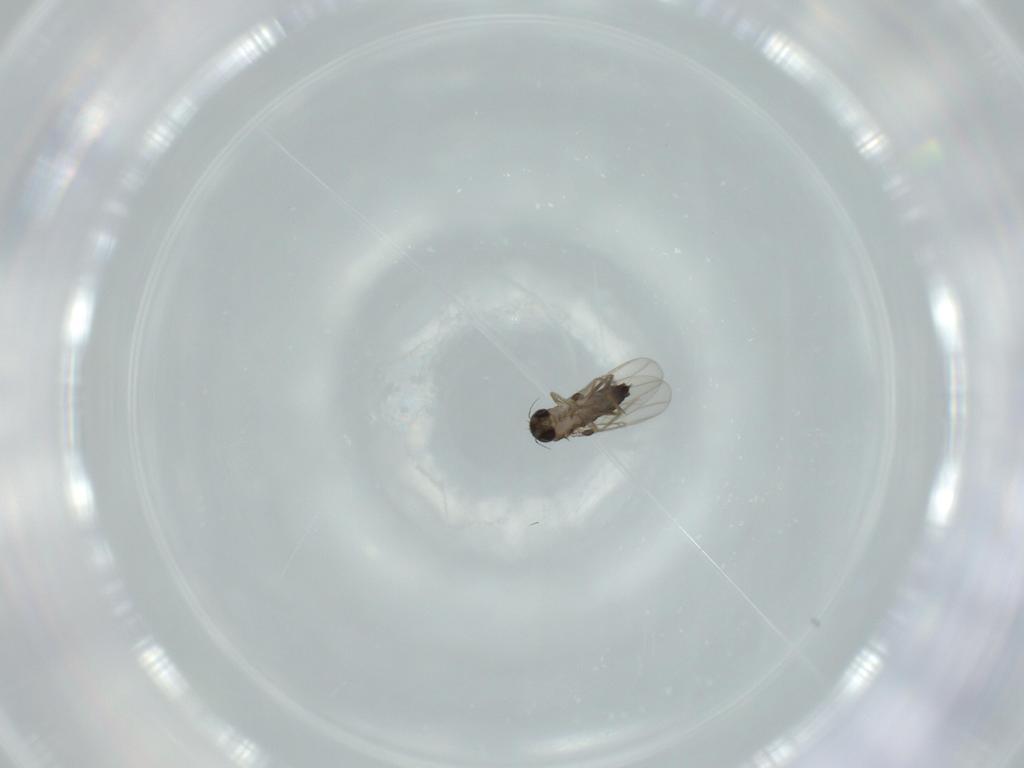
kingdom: Animalia
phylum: Arthropoda
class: Insecta
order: Diptera
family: Phoridae
